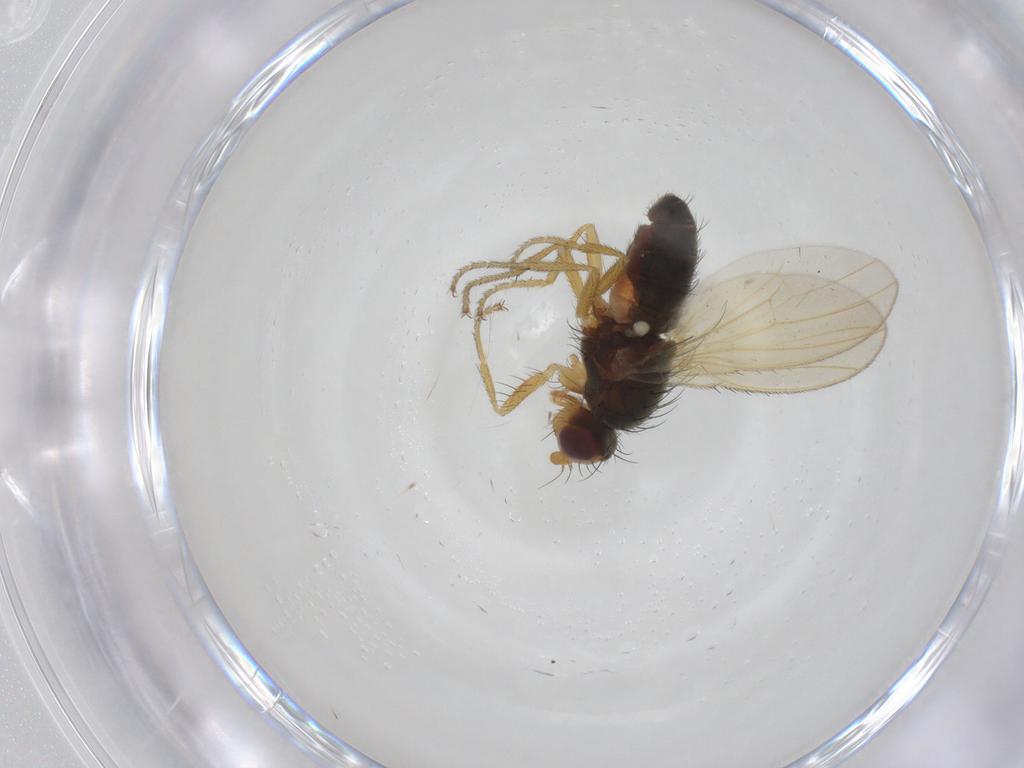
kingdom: Animalia
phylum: Arthropoda
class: Insecta
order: Diptera
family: Heleomyzidae
